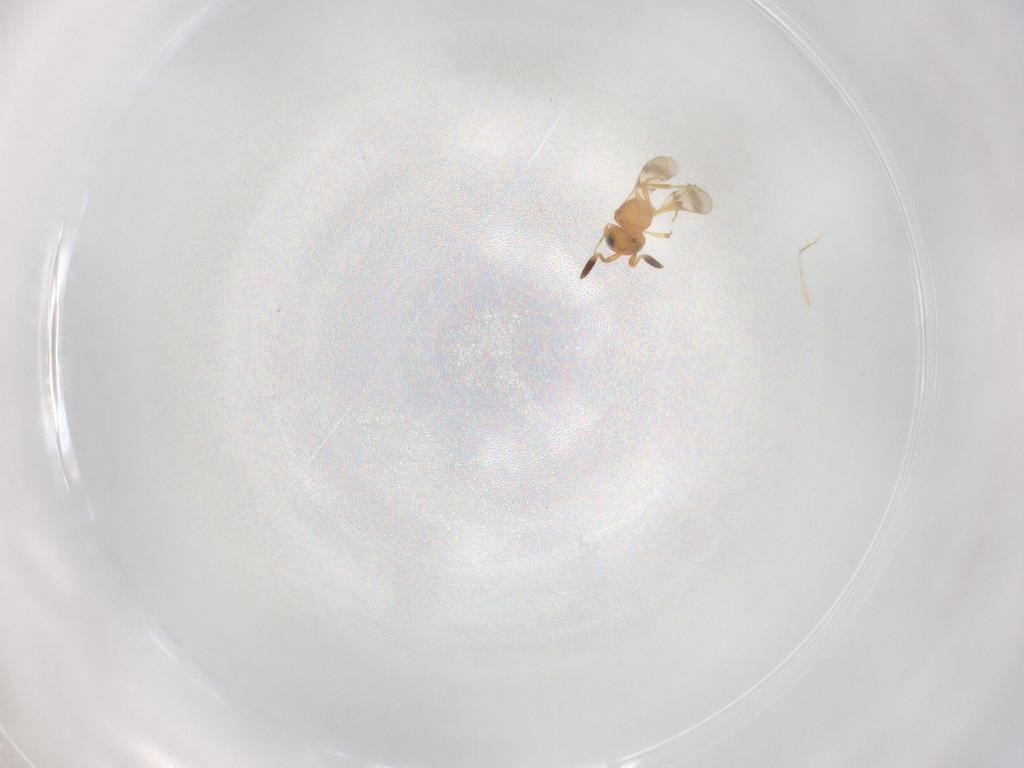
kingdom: Animalia
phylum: Arthropoda
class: Insecta
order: Hymenoptera
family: Scelionidae
